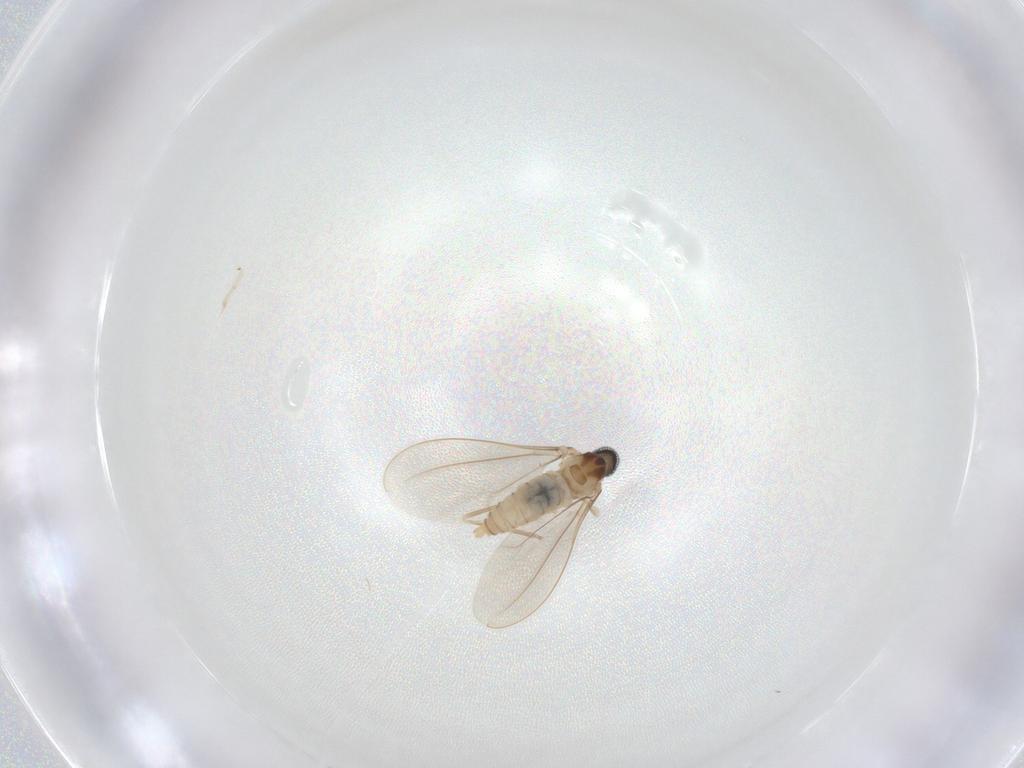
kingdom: Animalia
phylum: Arthropoda
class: Insecta
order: Diptera
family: Cecidomyiidae
